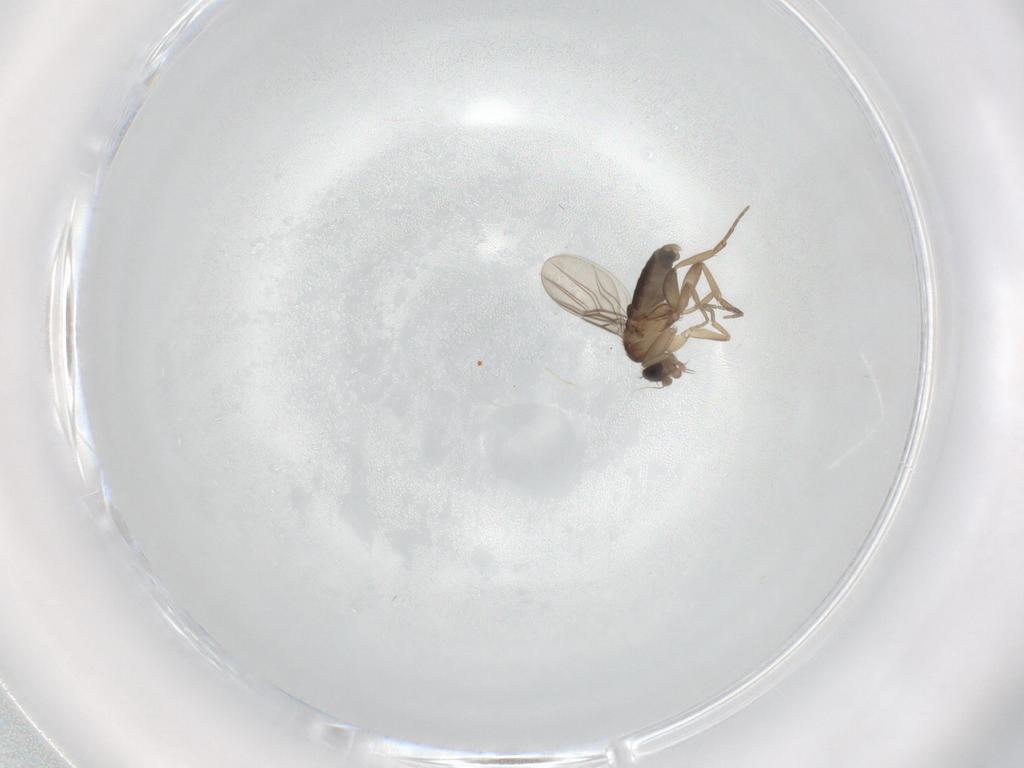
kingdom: Animalia
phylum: Arthropoda
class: Insecta
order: Diptera
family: Phoridae
